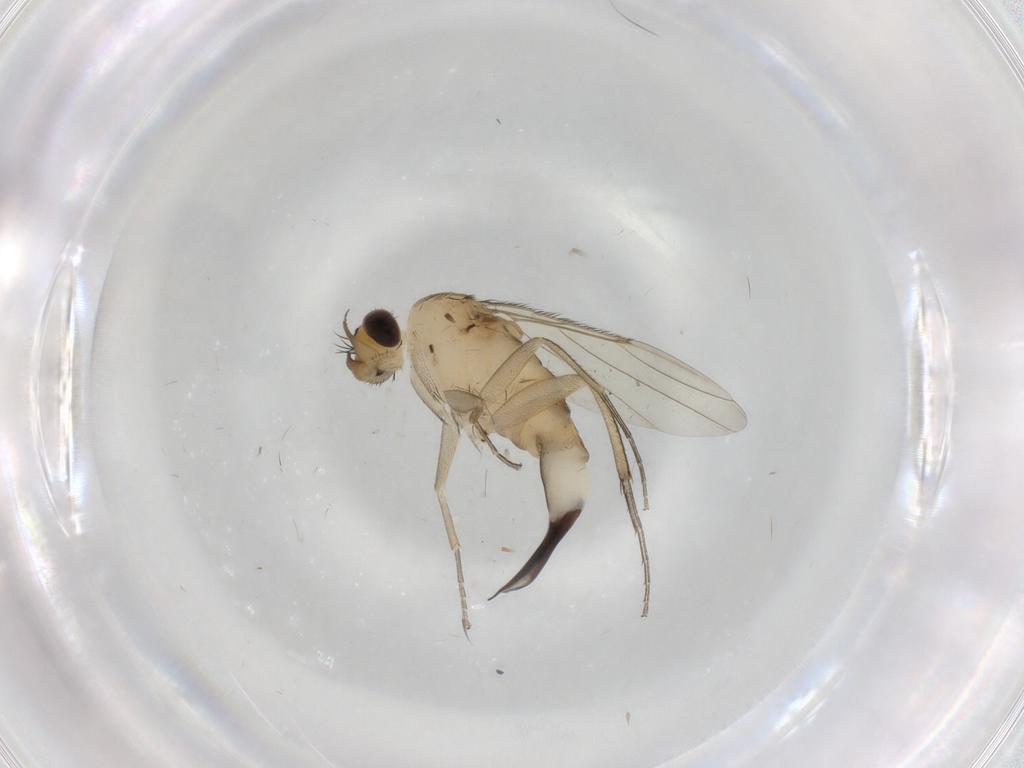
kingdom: Animalia
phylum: Arthropoda
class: Insecta
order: Diptera
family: Phoridae
